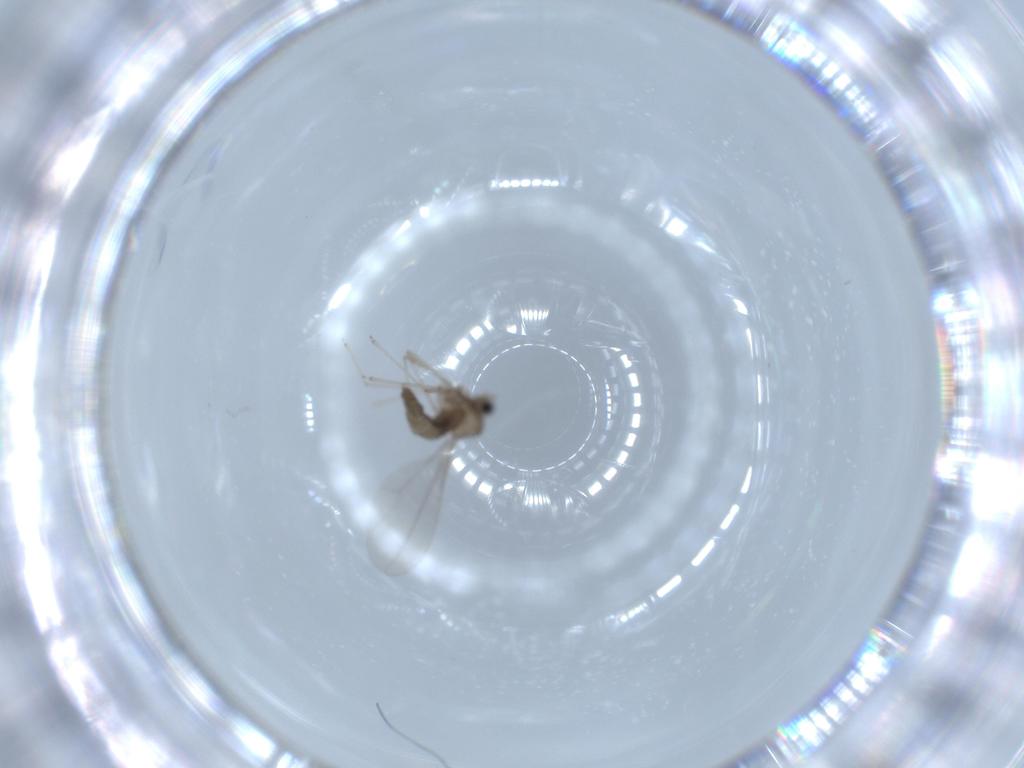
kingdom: Animalia
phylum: Arthropoda
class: Insecta
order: Diptera
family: Cecidomyiidae
